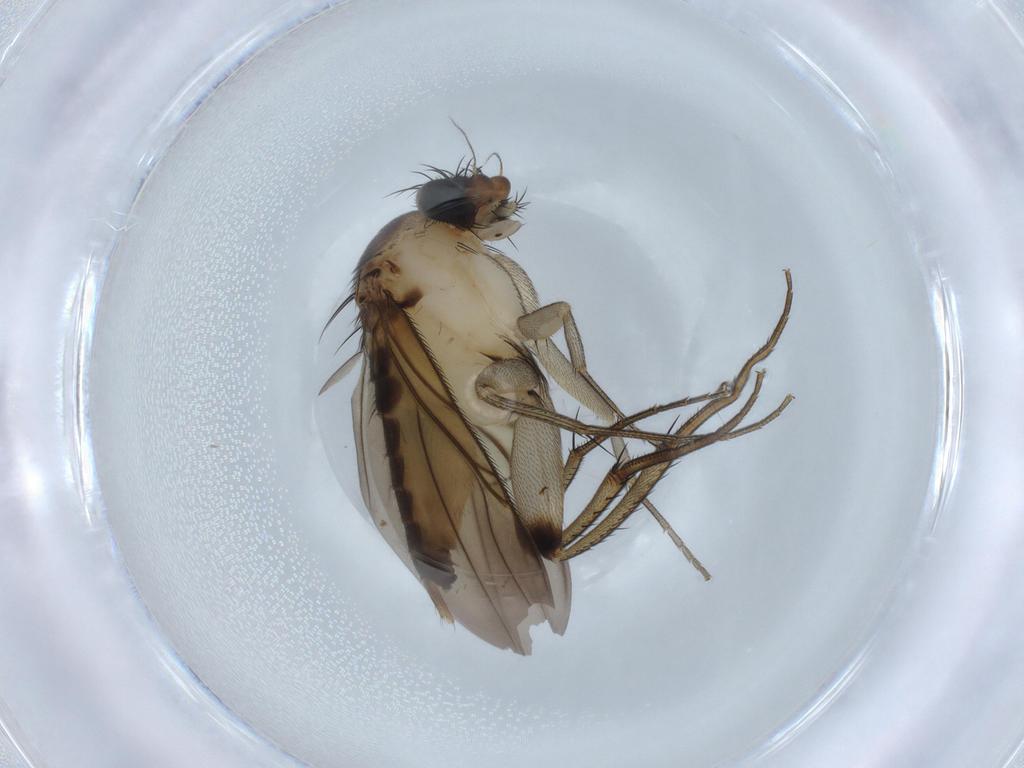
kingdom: Animalia
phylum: Arthropoda
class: Insecta
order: Diptera
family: Phoridae
